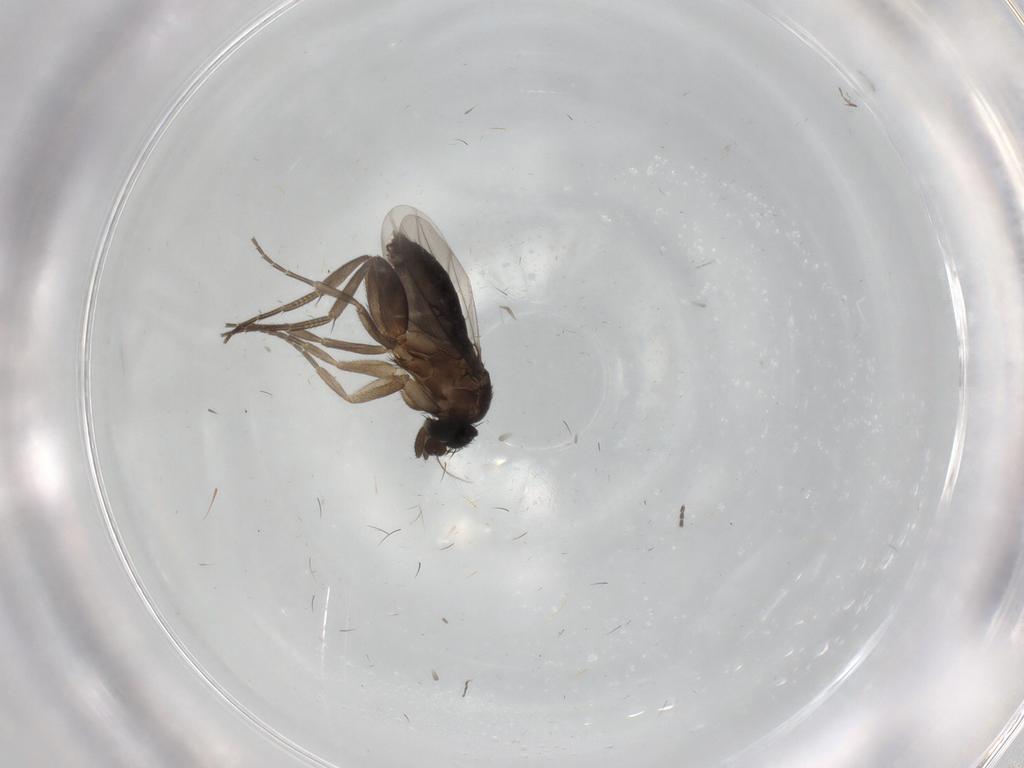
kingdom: Animalia
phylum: Arthropoda
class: Insecta
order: Diptera
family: Phoridae
